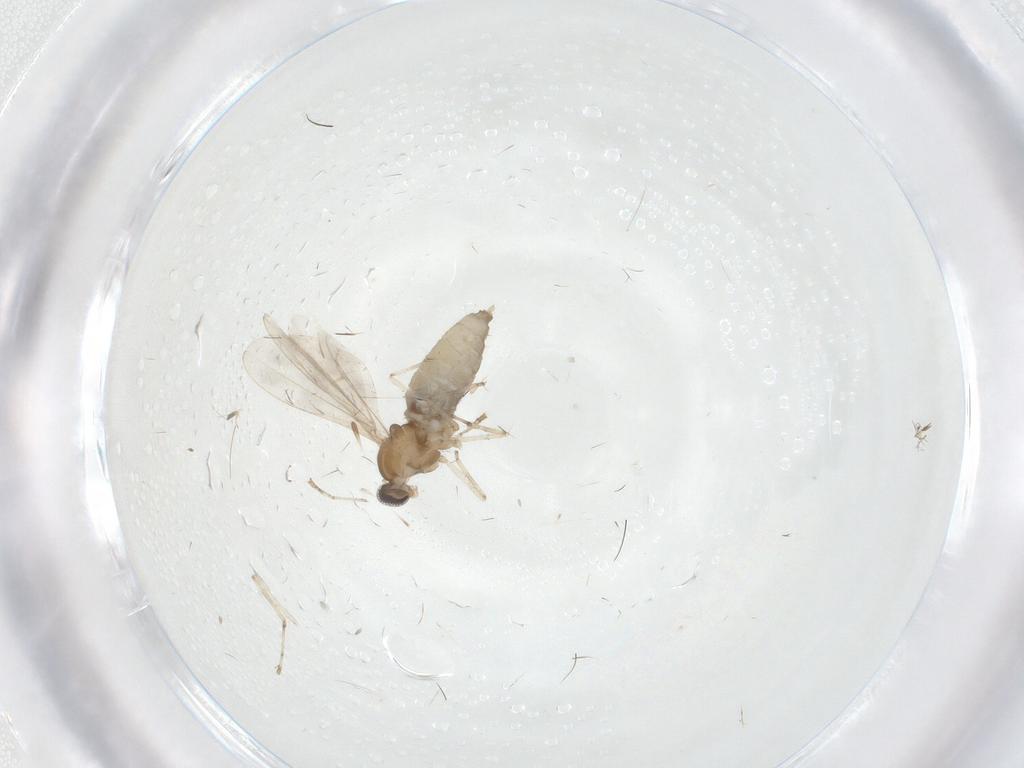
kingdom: Animalia
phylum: Arthropoda
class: Insecta
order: Diptera
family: Cecidomyiidae
